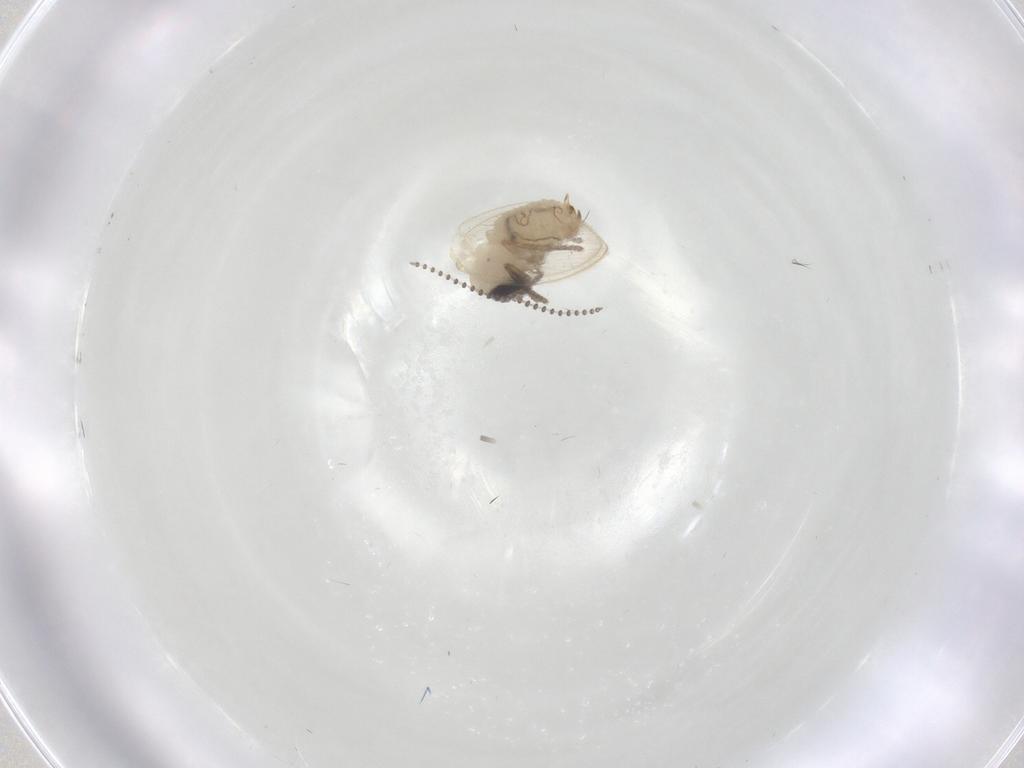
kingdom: Animalia
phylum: Arthropoda
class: Insecta
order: Diptera
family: Psychodidae
